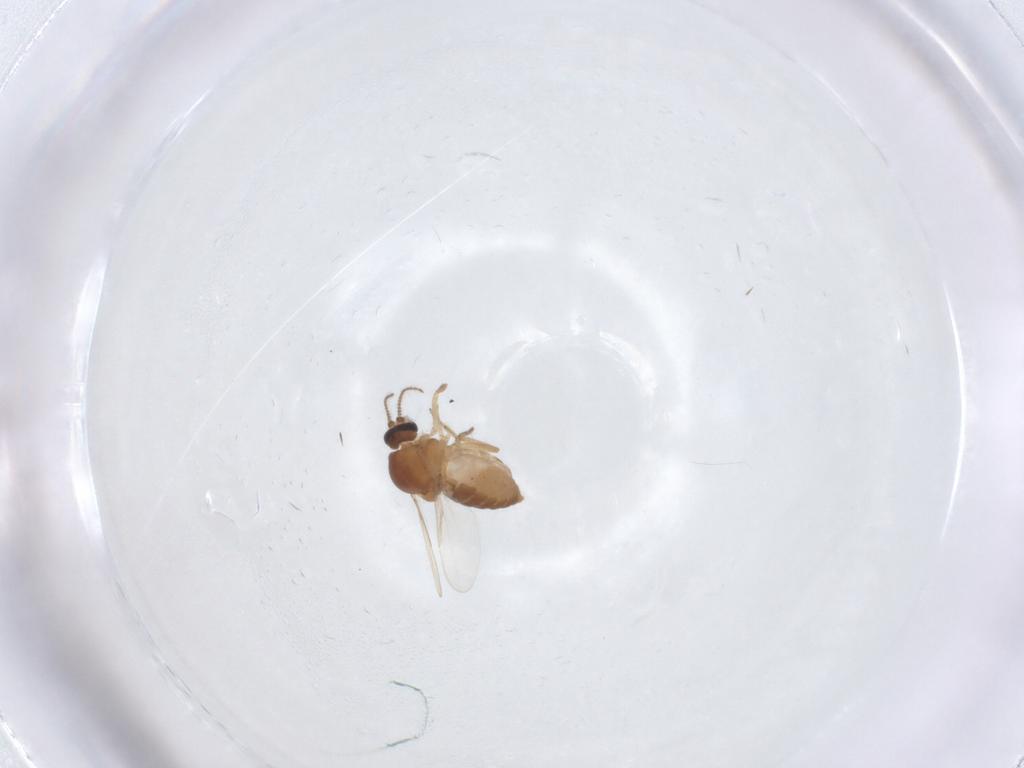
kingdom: Animalia
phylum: Arthropoda
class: Insecta
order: Diptera
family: Ceratopogonidae
